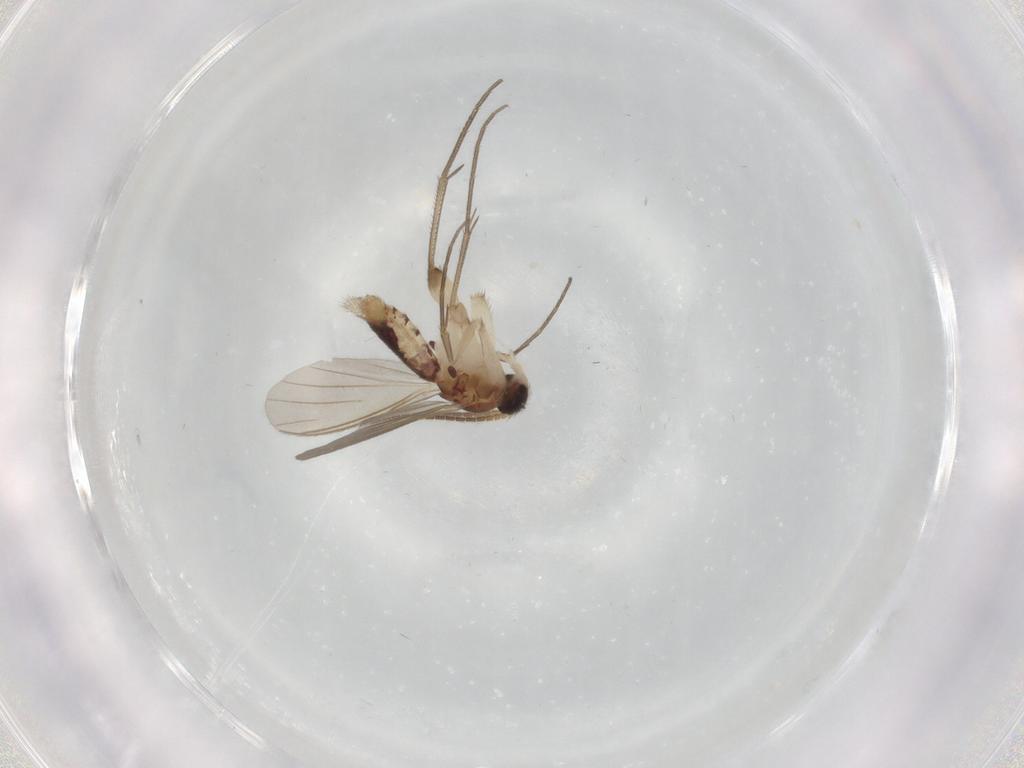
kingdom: Animalia
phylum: Arthropoda
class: Insecta
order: Diptera
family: Mycetophilidae
